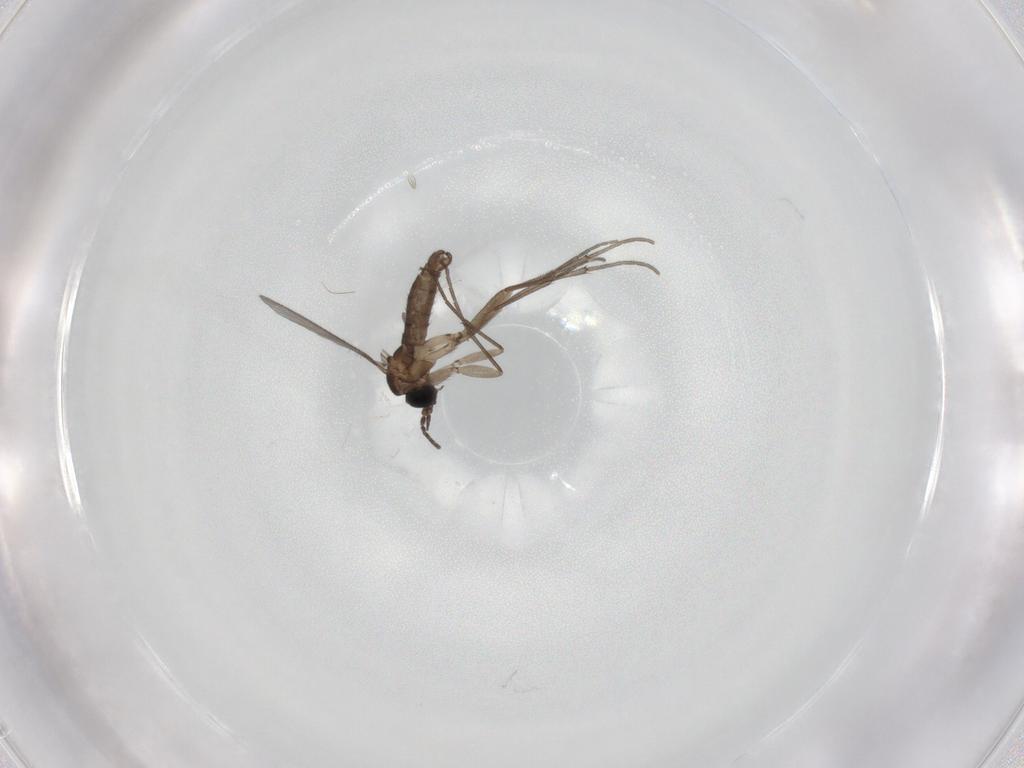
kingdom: Animalia
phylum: Arthropoda
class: Insecta
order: Diptera
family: Sciaridae
